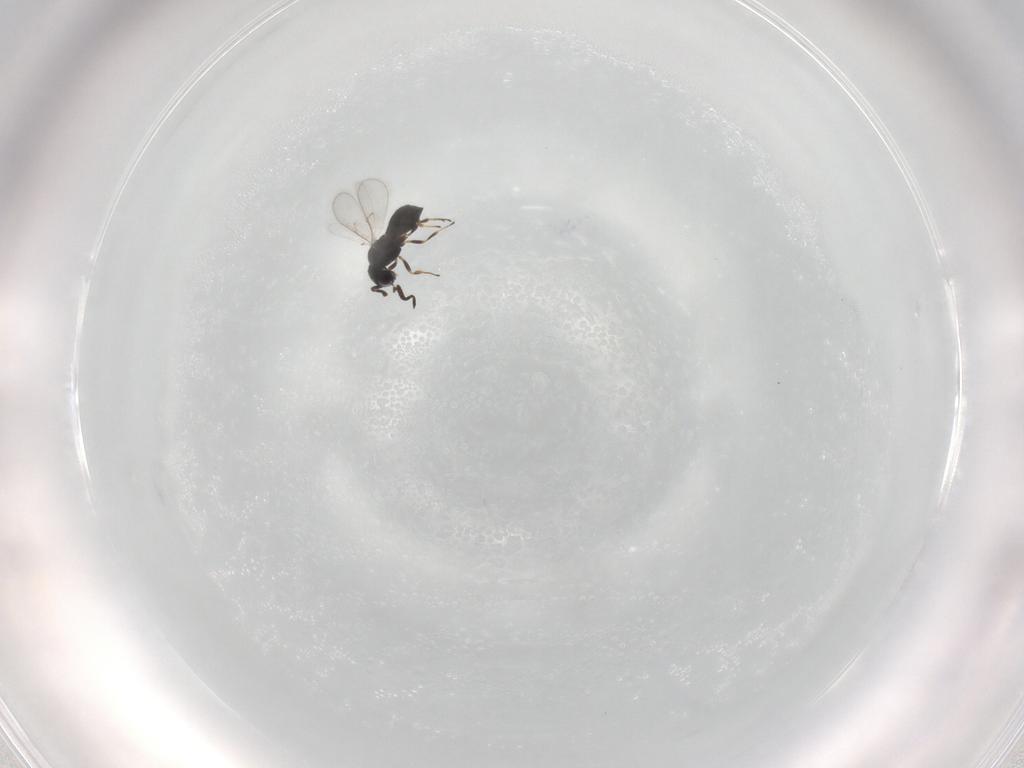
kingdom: Animalia
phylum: Arthropoda
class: Insecta
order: Hymenoptera
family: Scelionidae
